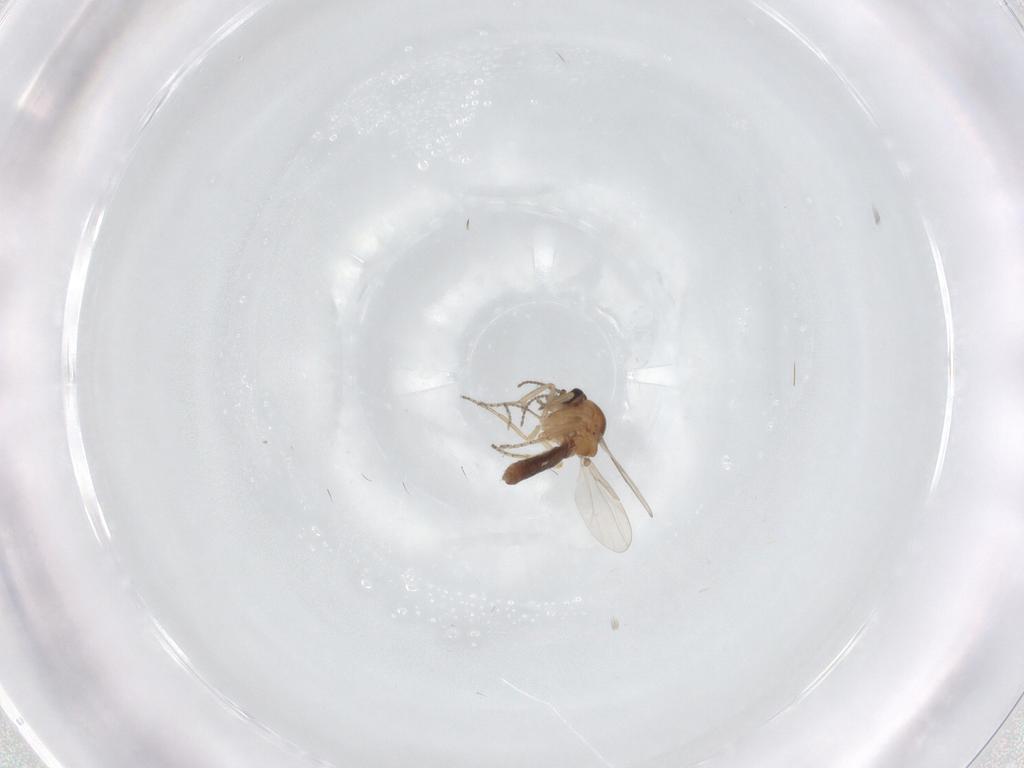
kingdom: Animalia
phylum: Arthropoda
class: Insecta
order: Diptera
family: Ceratopogonidae
